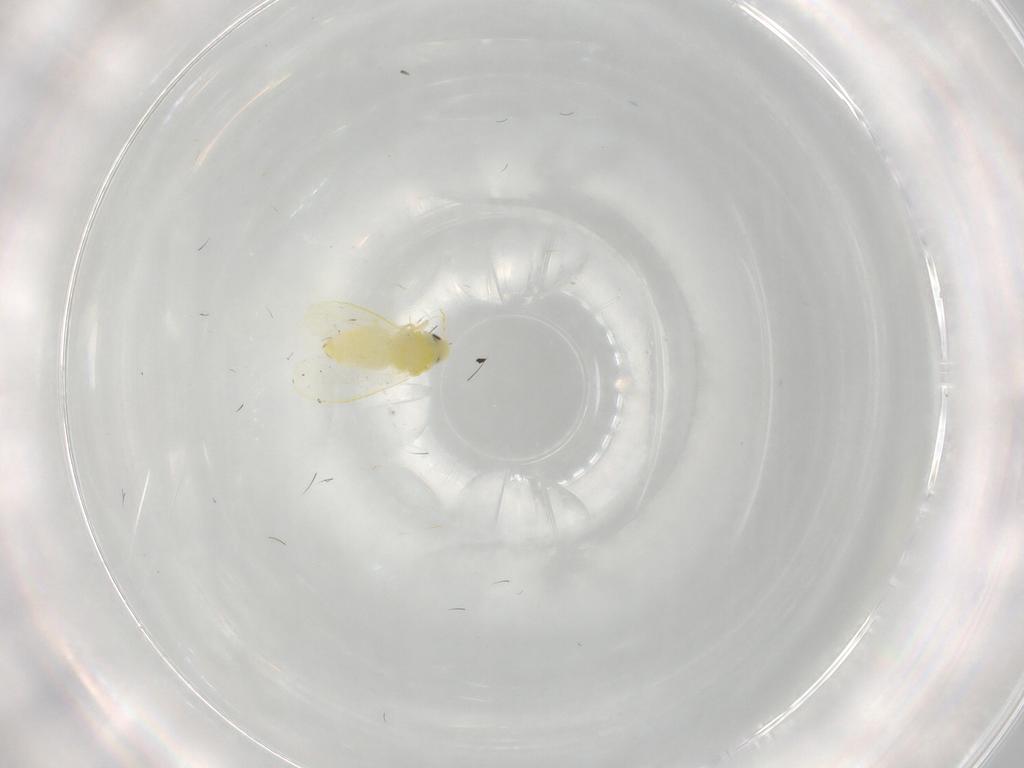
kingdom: Animalia
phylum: Arthropoda
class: Insecta
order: Hemiptera
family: Aleyrodidae
